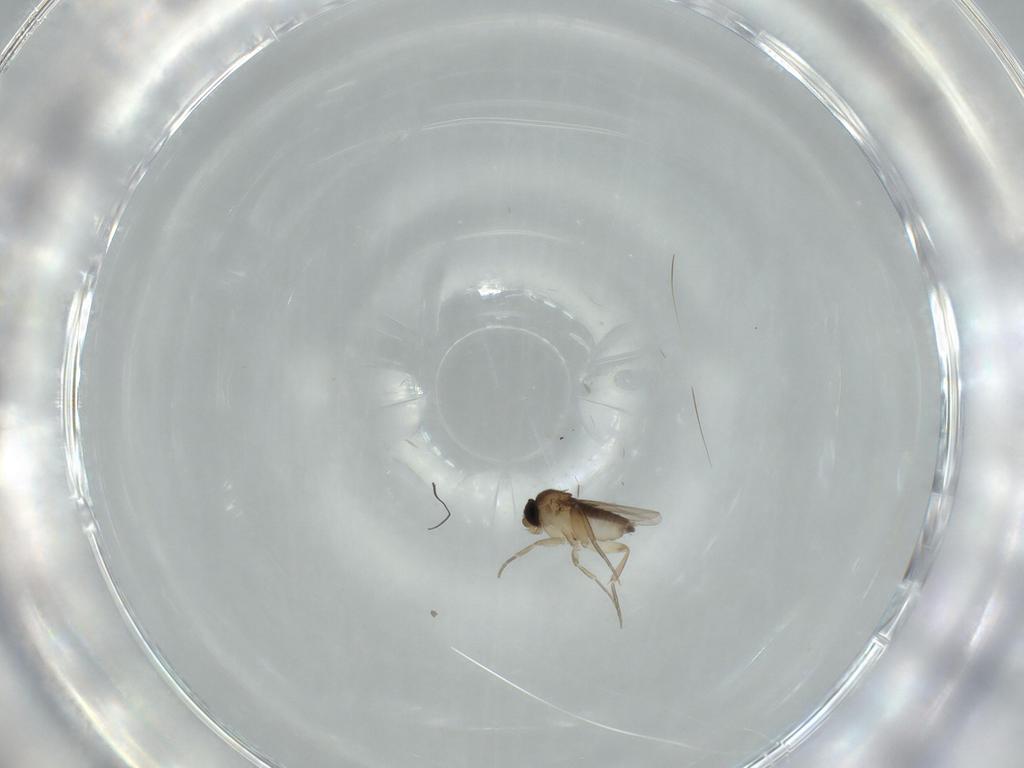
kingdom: Animalia
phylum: Arthropoda
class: Insecta
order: Diptera
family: Phoridae
